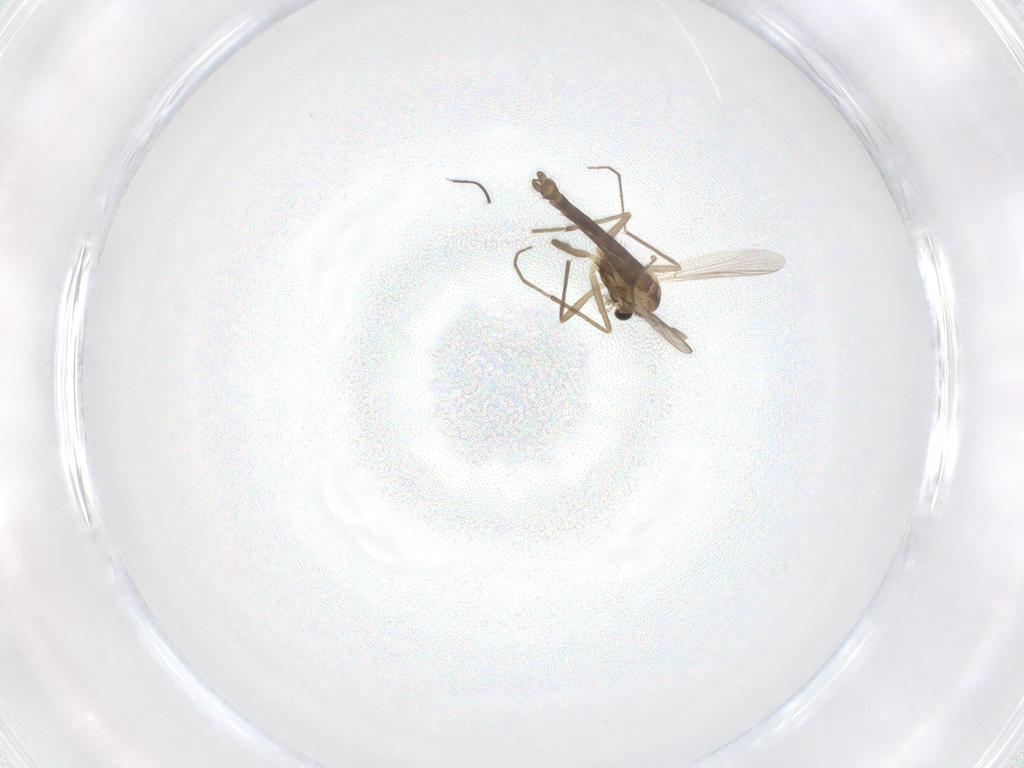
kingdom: Animalia
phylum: Arthropoda
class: Insecta
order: Diptera
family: Chironomidae
